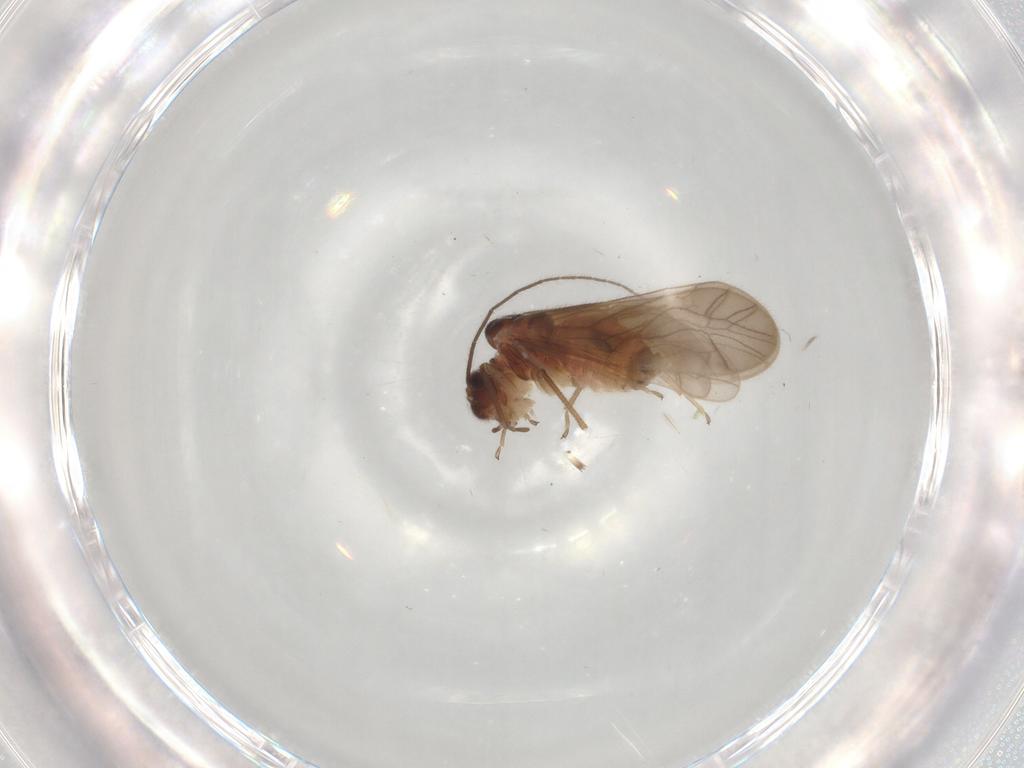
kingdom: Animalia
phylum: Arthropoda
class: Insecta
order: Psocodea
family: Caeciliusidae
